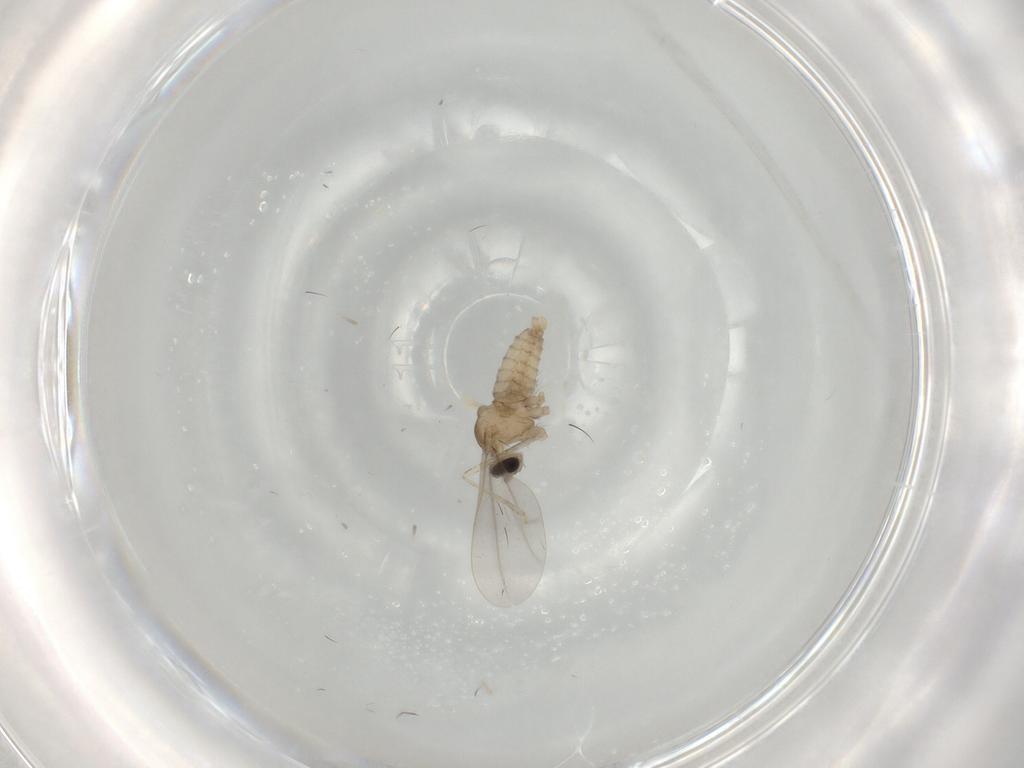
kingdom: Animalia
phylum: Arthropoda
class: Insecta
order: Diptera
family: Cecidomyiidae
